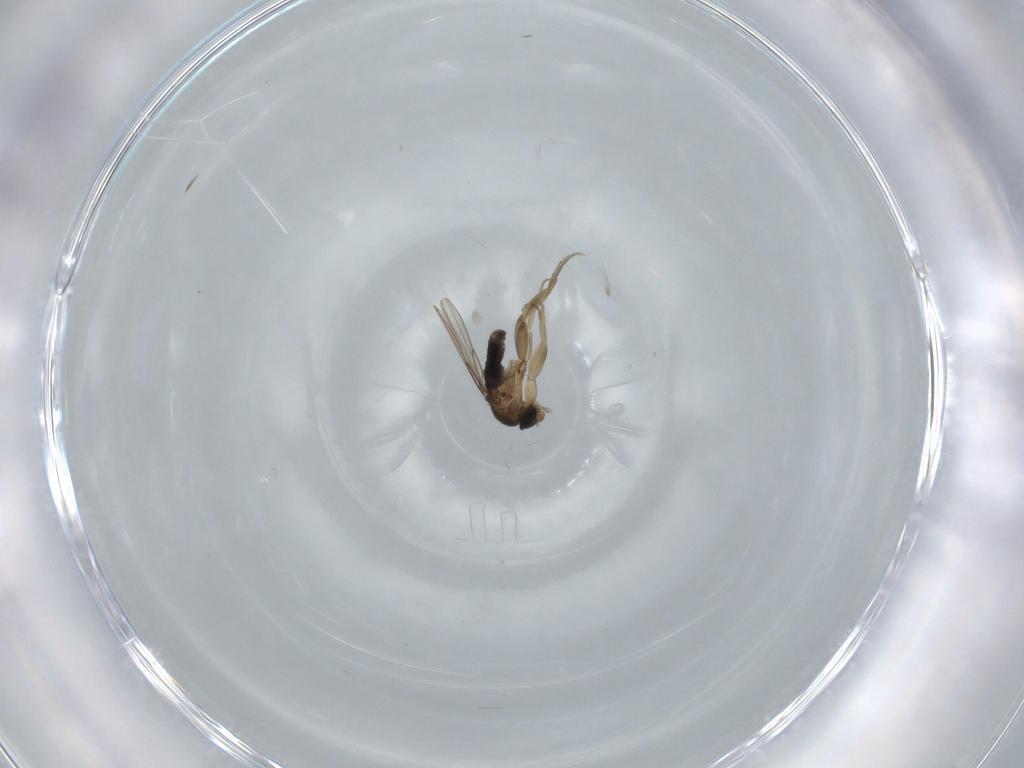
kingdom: Animalia
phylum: Arthropoda
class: Insecta
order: Diptera
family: Phoridae
